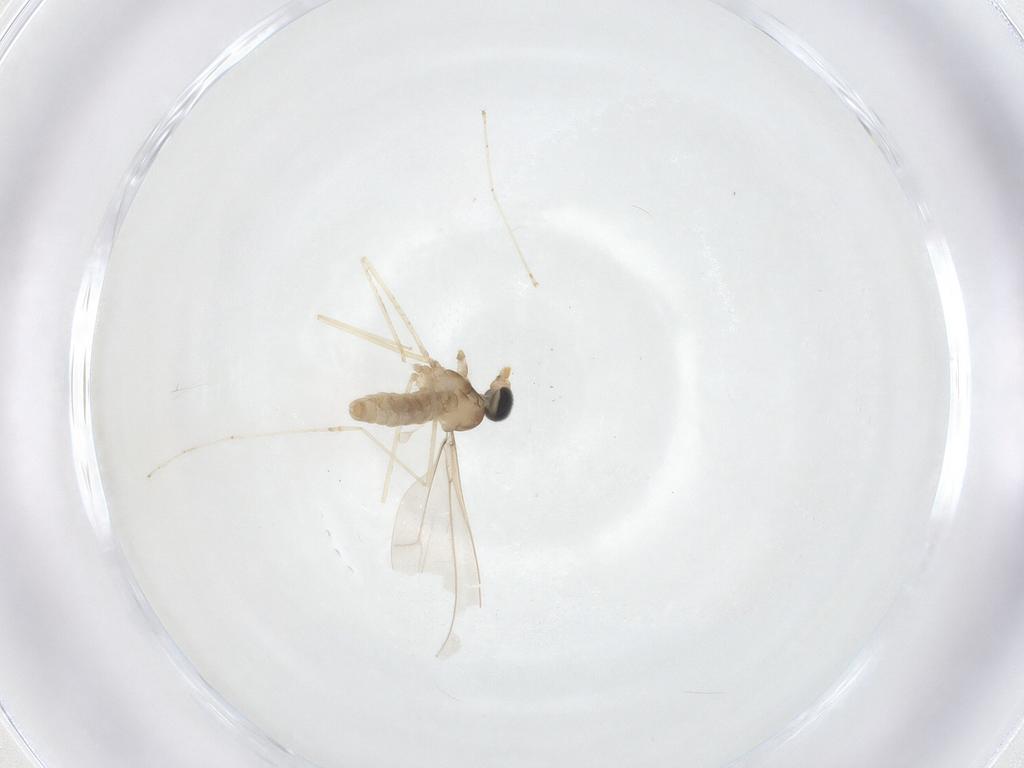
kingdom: Animalia
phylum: Arthropoda
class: Insecta
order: Diptera
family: Cecidomyiidae
